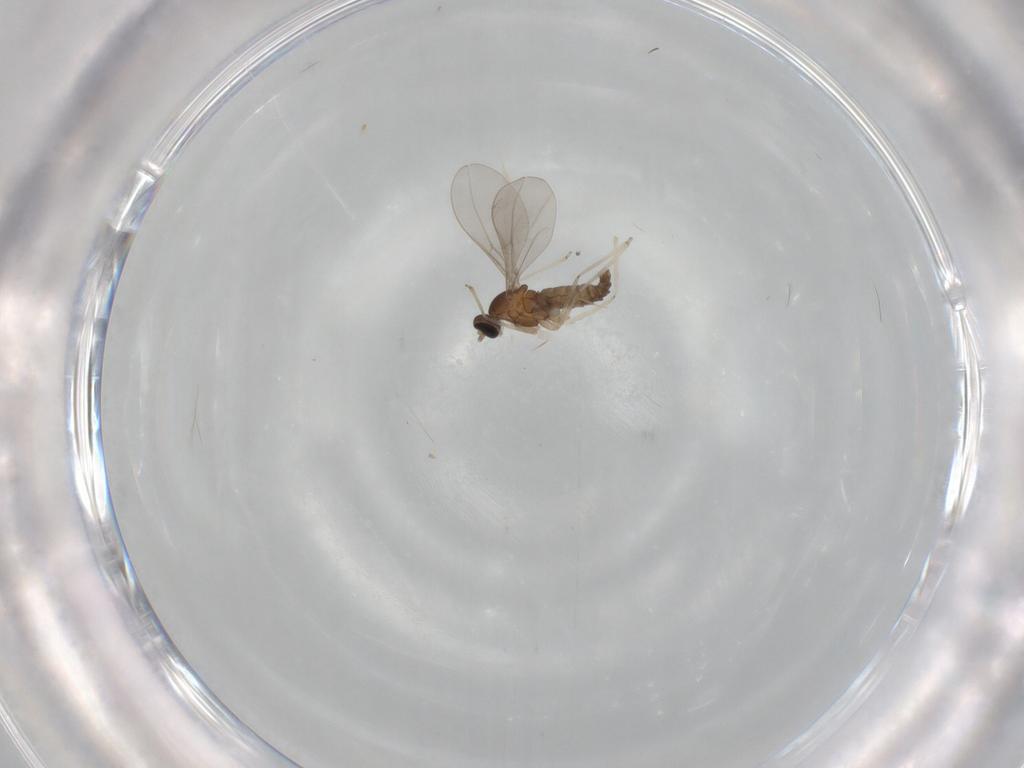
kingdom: Animalia
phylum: Arthropoda
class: Insecta
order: Diptera
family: Cecidomyiidae
